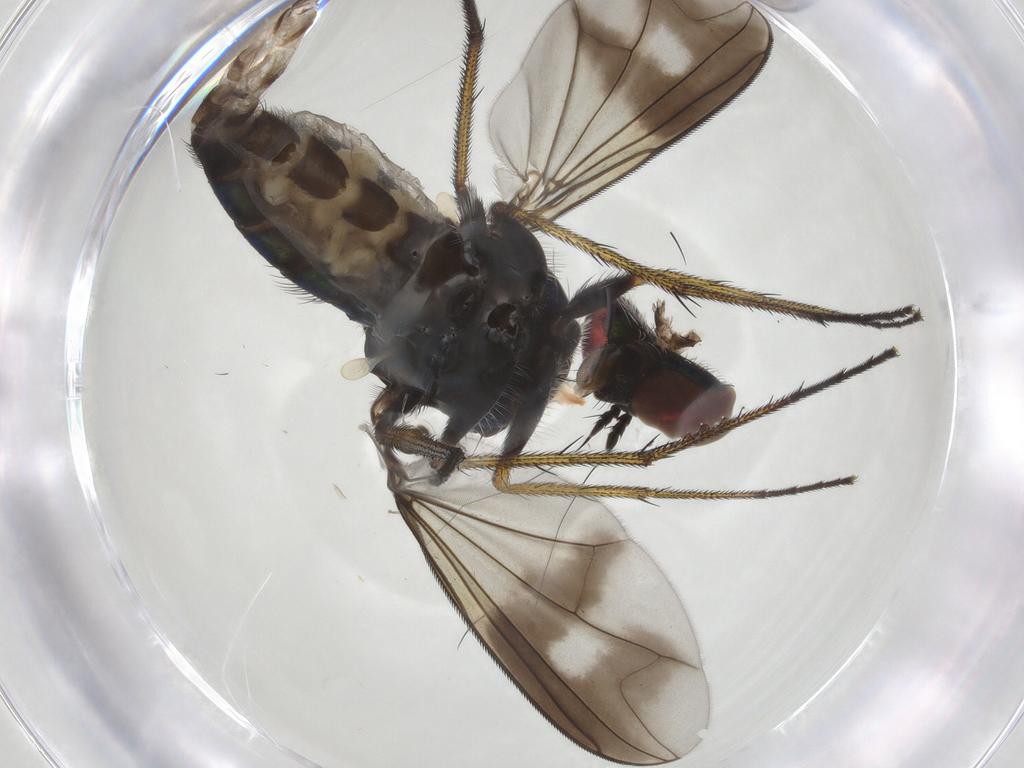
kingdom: Animalia
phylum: Arthropoda
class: Insecta
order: Diptera
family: Dolichopodidae
